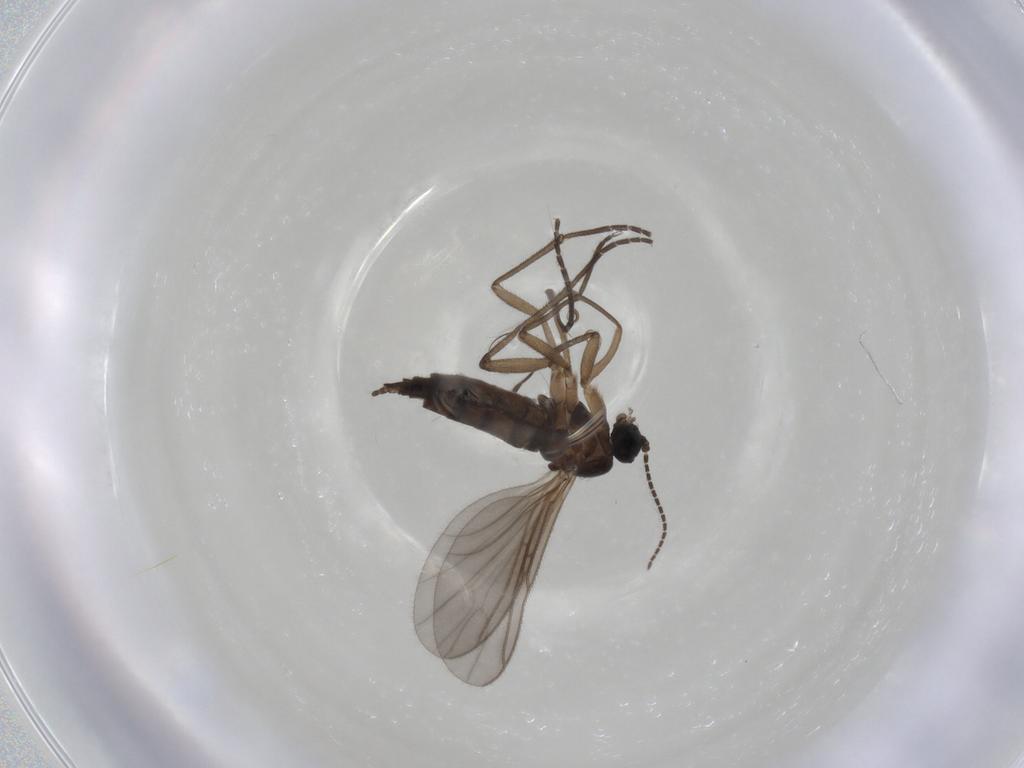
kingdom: Animalia
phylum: Arthropoda
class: Insecta
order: Diptera
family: Sciaridae
